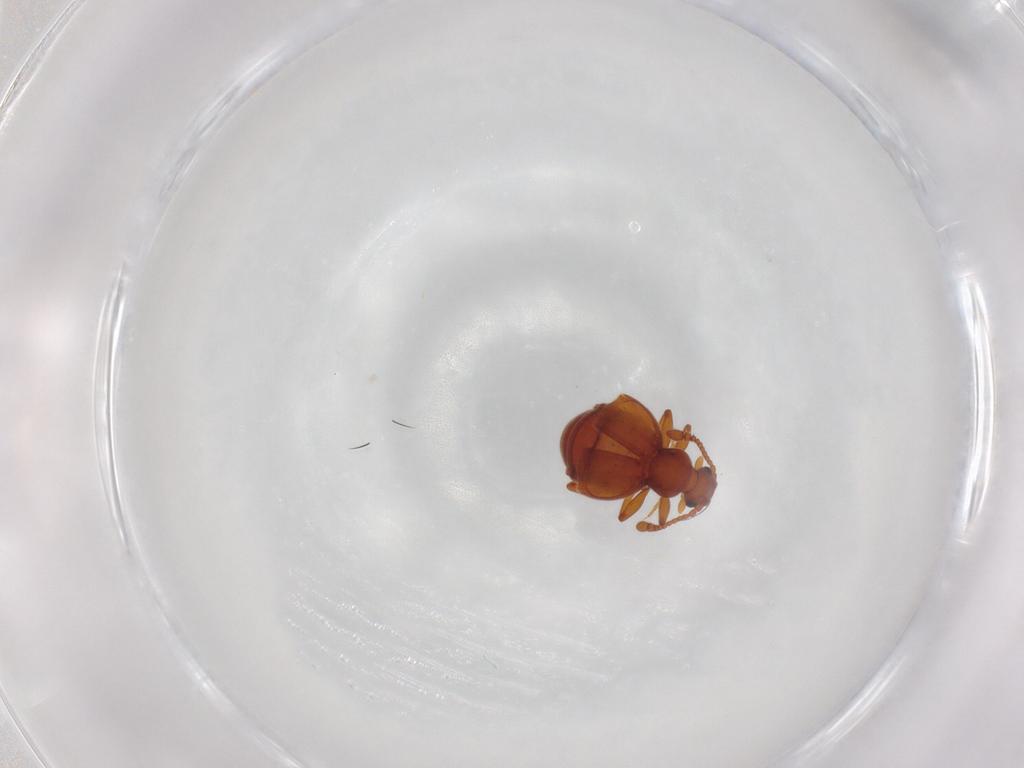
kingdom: Animalia
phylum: Arthropoda
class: Insecta
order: Coleoptera
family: Staphylinidae
